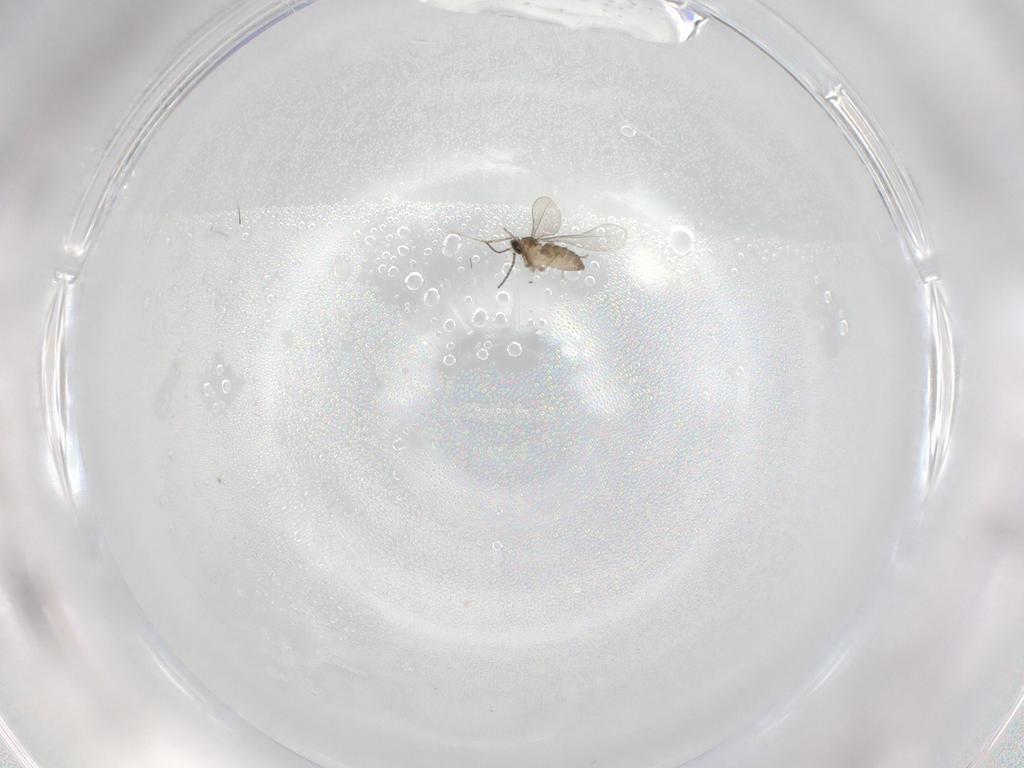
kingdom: Animalia
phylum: Arthropoda
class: Insecta
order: Diptera
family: Cecidomyiidae
